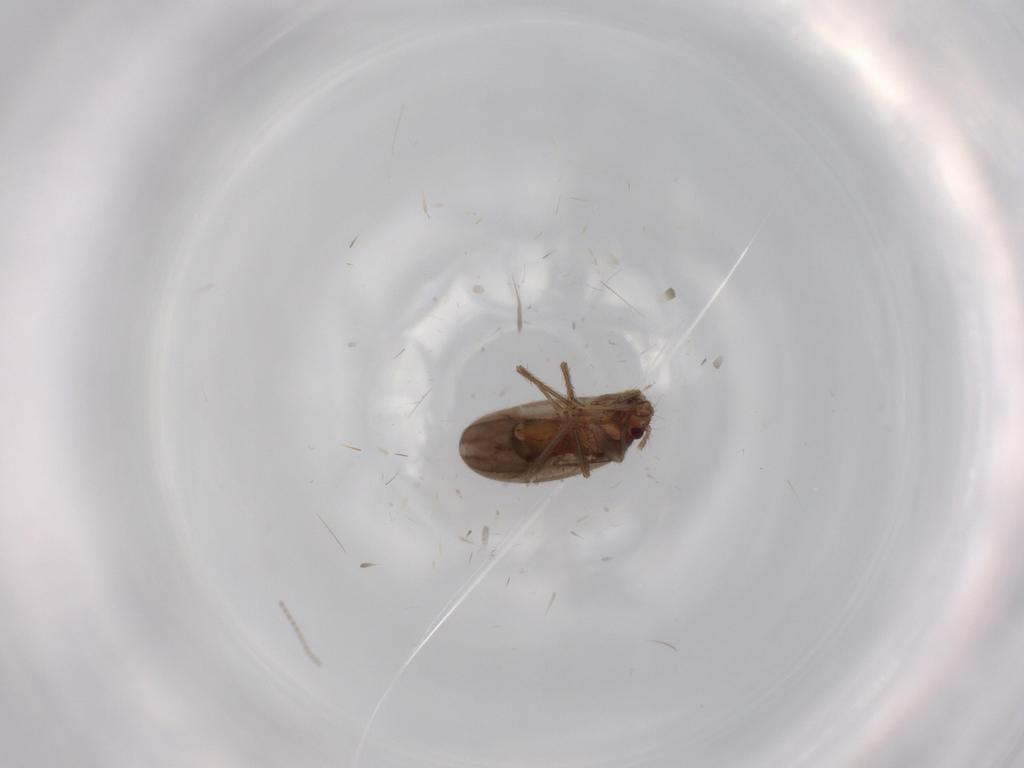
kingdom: Animalia
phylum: Arthropoda
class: Insecta
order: Hemiptera
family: Ceratocombidae
